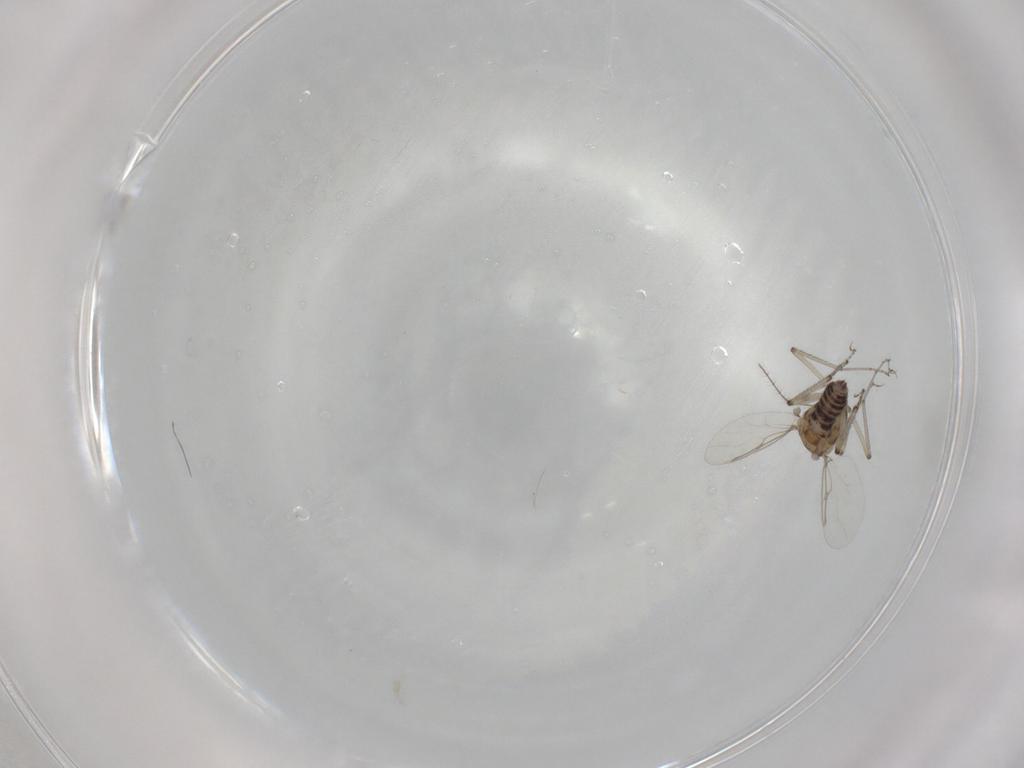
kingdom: Animalia
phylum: Arthropoda
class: Insecta
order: Diptera
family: Ceratopogonidae
